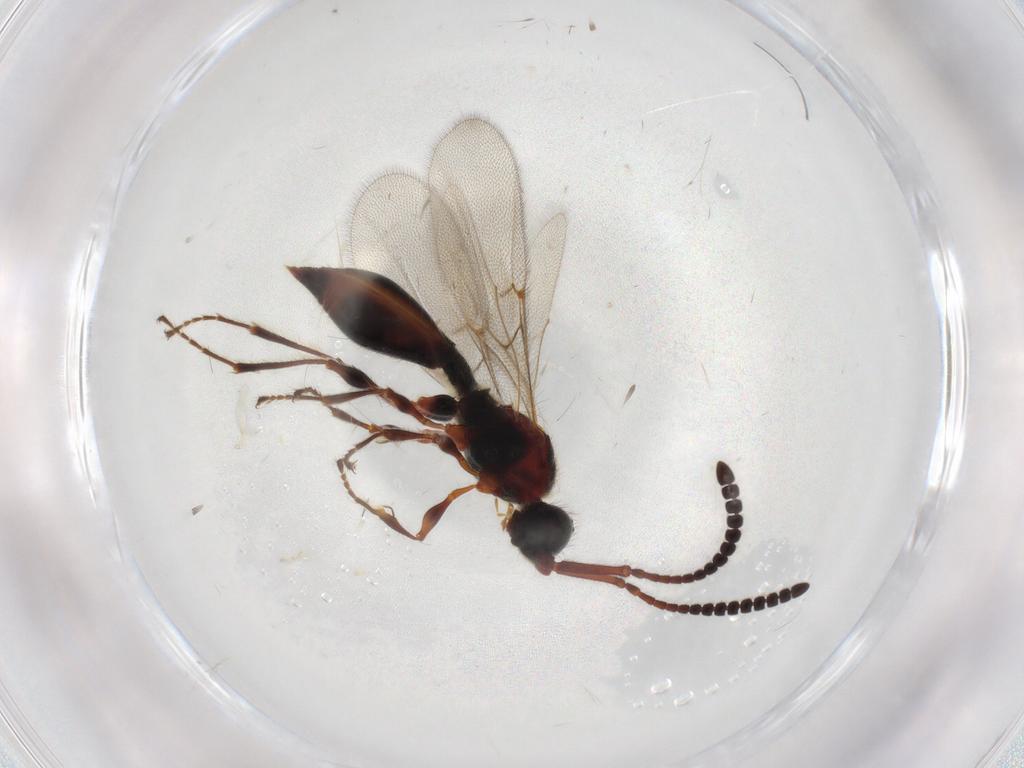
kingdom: Animalia
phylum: Arthropoda
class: Insecta
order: Hymenoptera
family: Diapriidae
